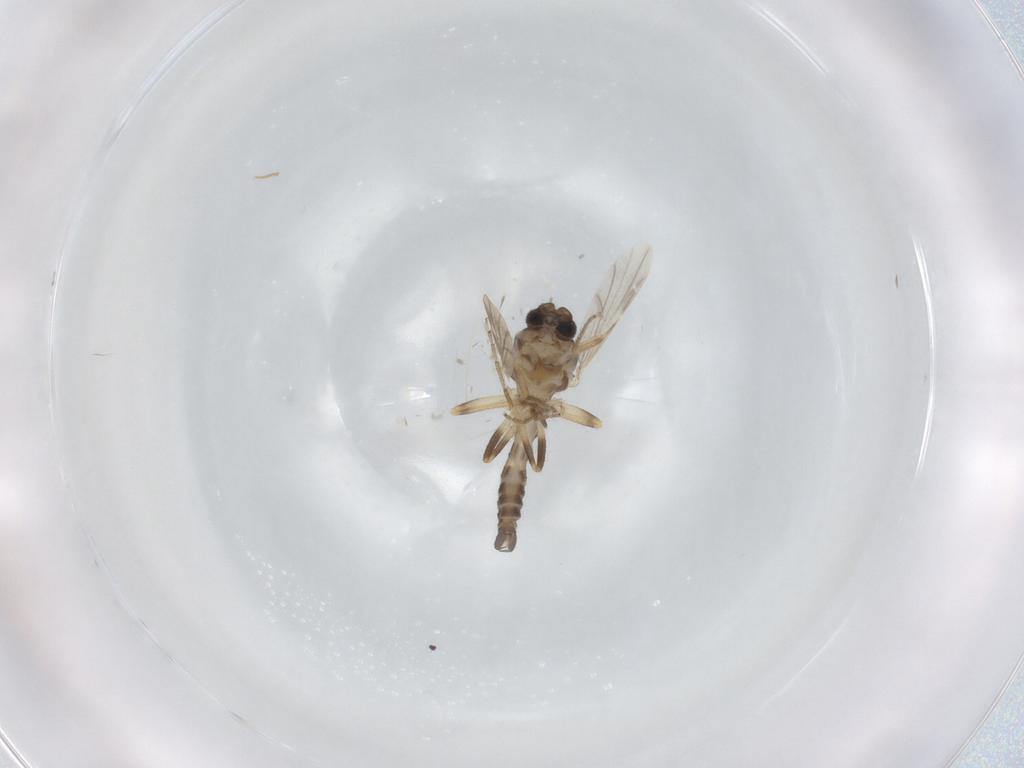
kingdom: Animalia
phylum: Arthropoda
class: Insecta
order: Diptera
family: Ceratopogonidae
